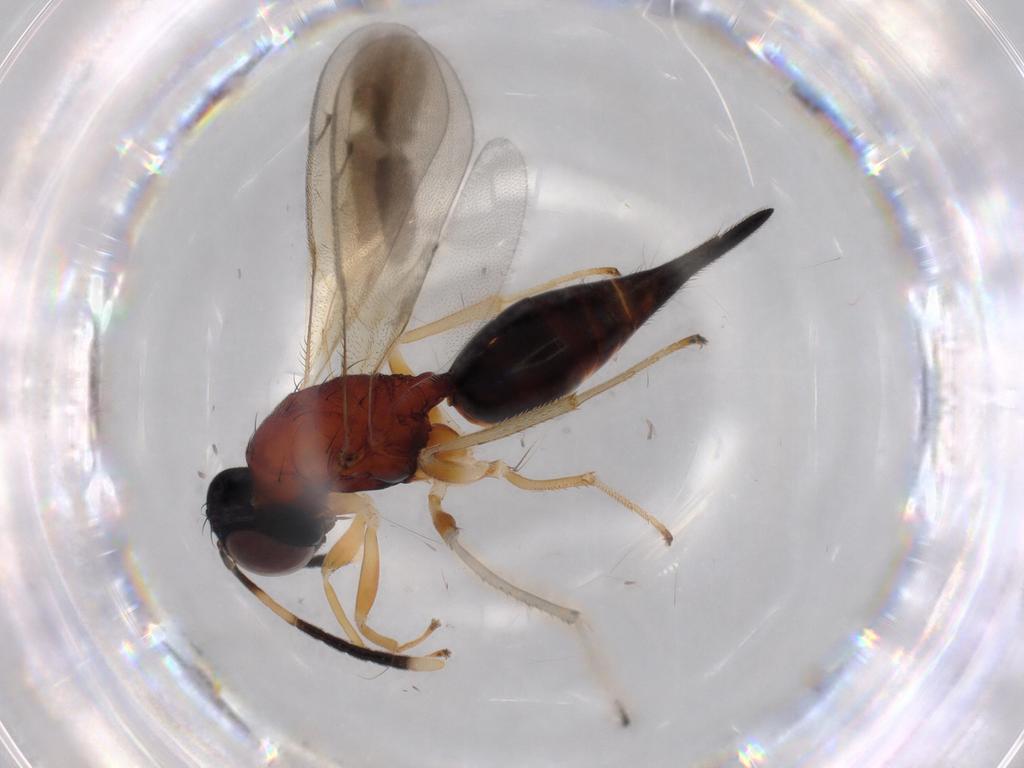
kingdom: Animalia
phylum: Arthropoda
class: Insecta
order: Hymenoptera
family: Diparidae
